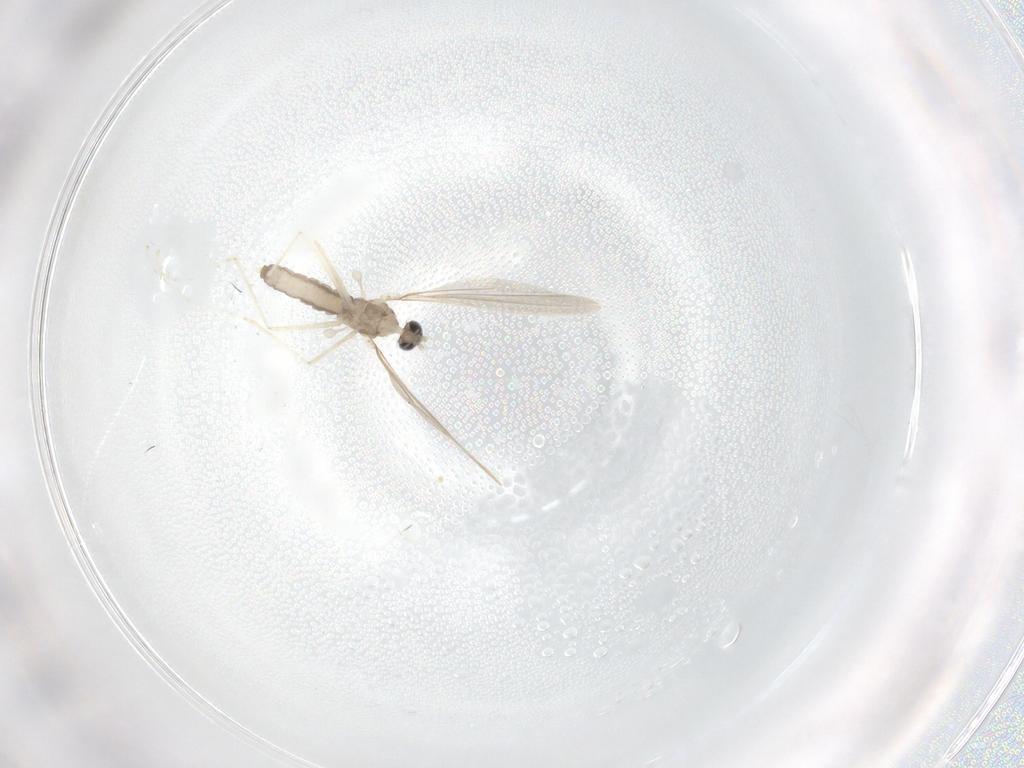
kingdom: Animalia
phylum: Arthropoda
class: Insecta
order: Diptera
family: Cecidomyiidae
